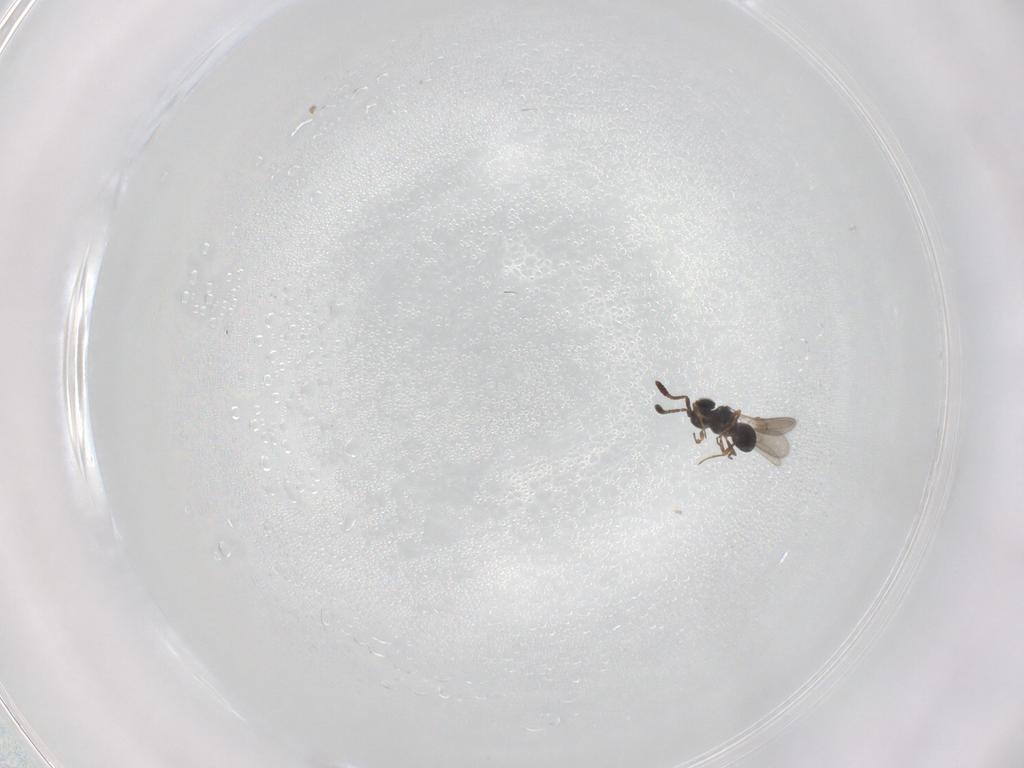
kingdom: Animalia
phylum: Arthropoda
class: Insecta
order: Hymenoptera
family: Scelionidae
